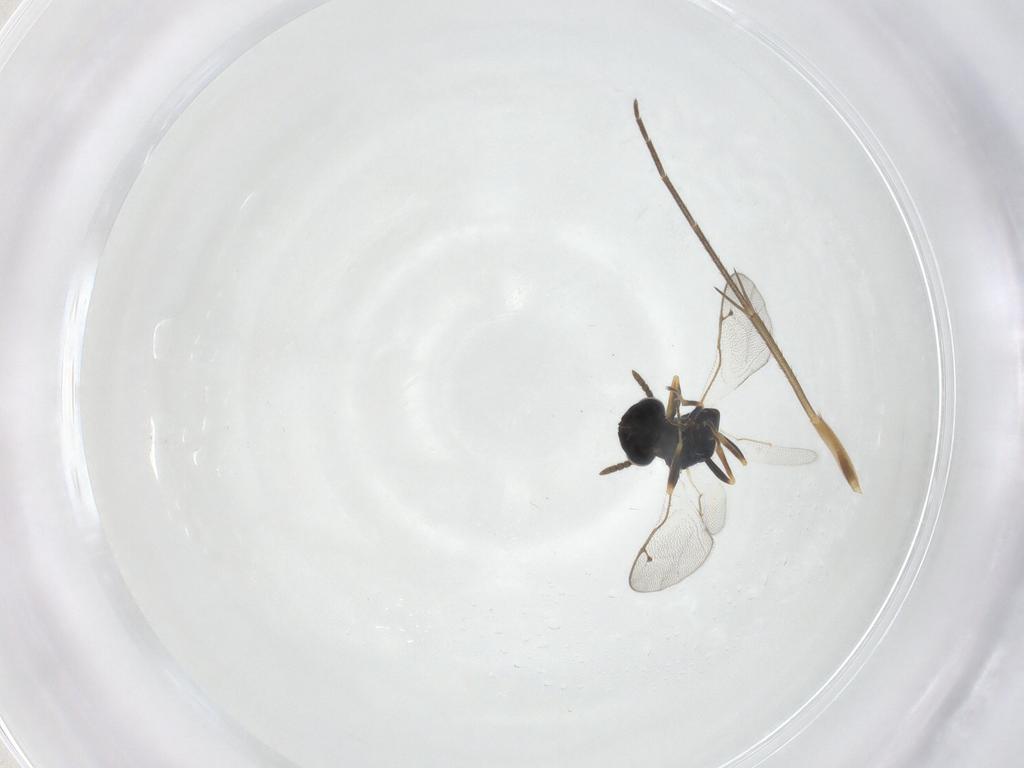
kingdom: Animalia
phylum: Arthropoda
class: Insecta
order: Hymenoptera
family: Pteromalidae
